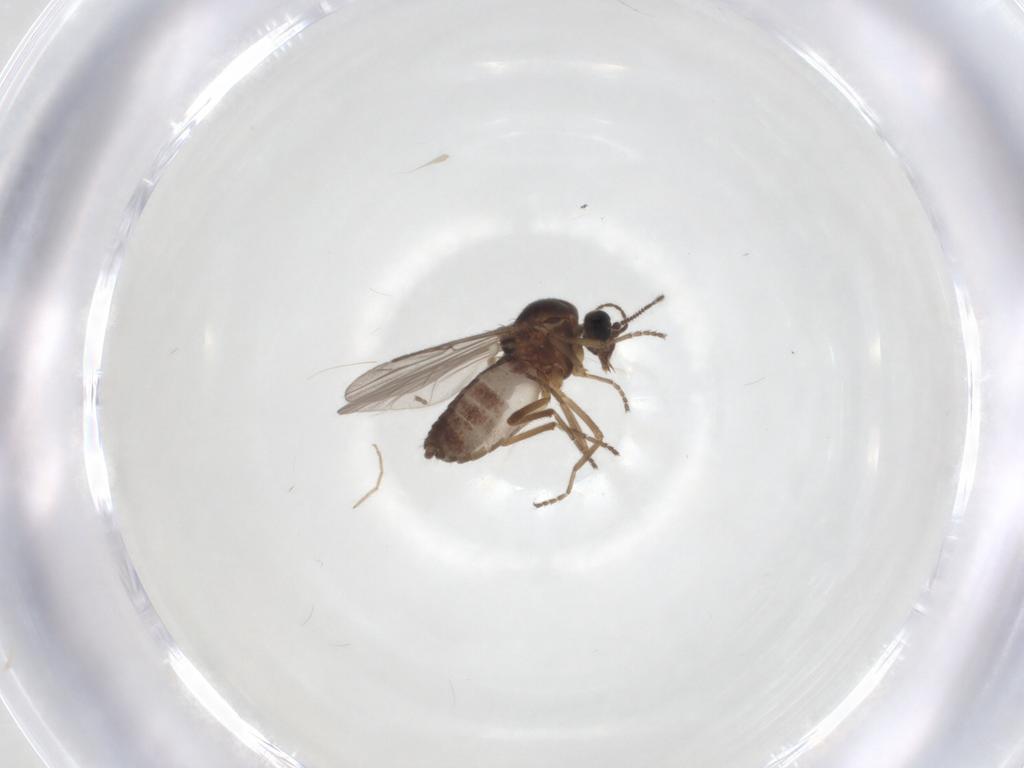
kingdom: Animalia
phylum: Arthropoda
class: Insecta
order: Diptera
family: Ceratopogonidae
